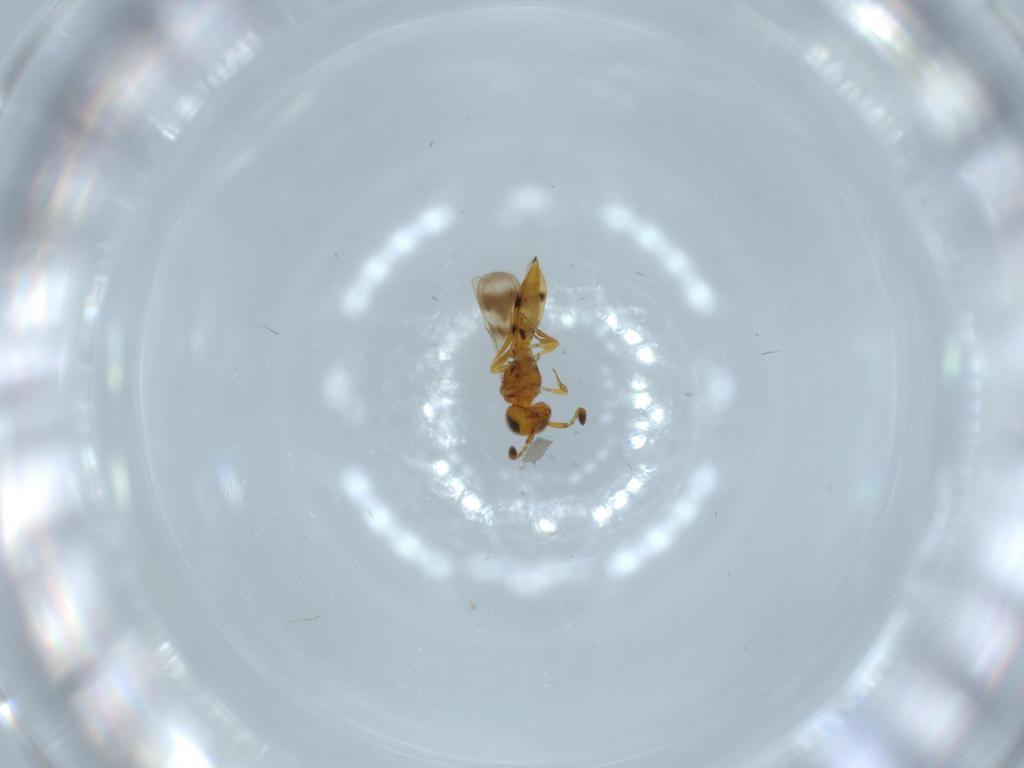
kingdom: Animalia
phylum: Arthropoda
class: Insecta
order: Hymenoptera
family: Scelionidae
